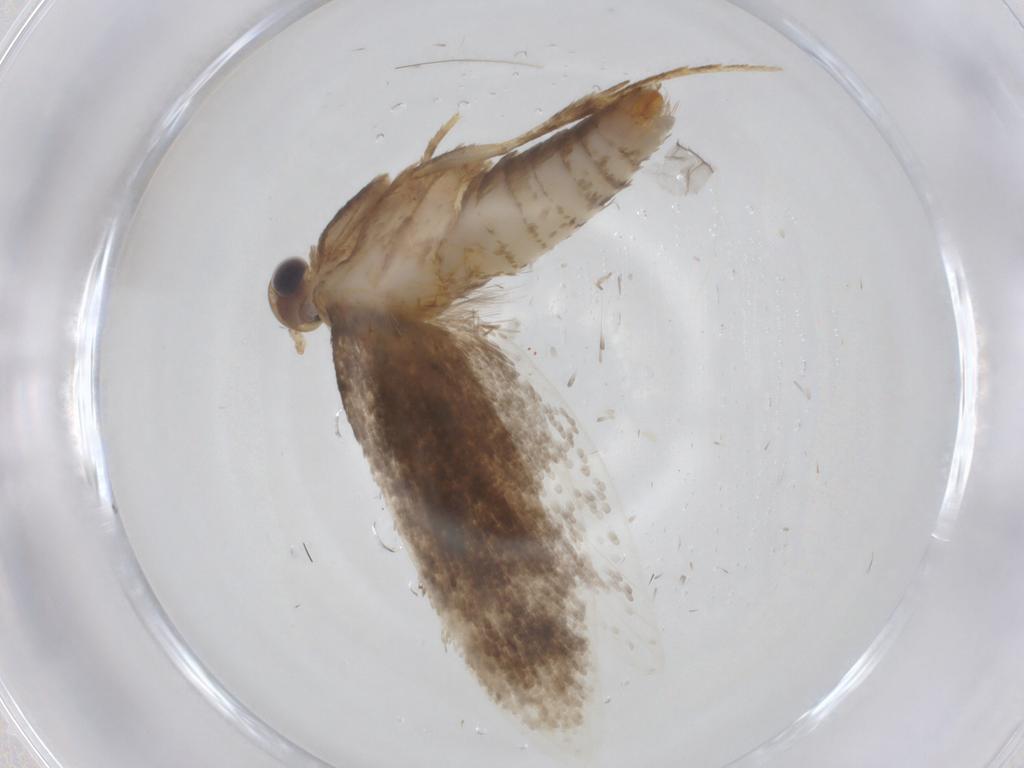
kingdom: Animalia
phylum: Arthropoda
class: Insecta
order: Lepidoptera
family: Tineidae
